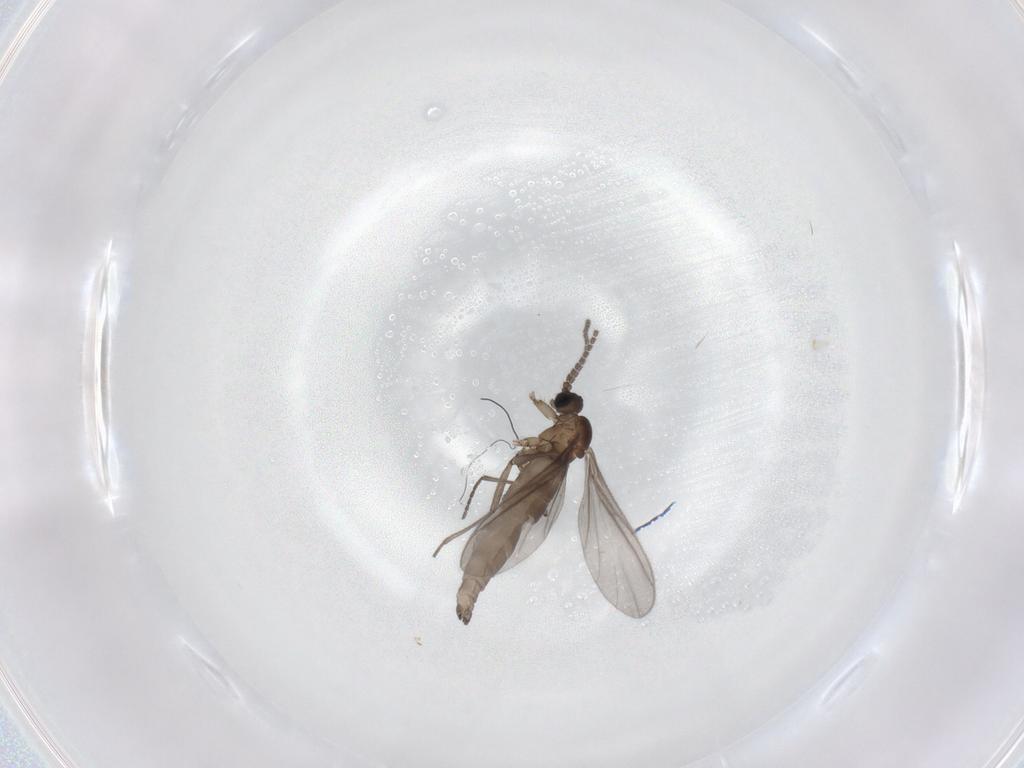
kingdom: Animalia
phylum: Arthropoda
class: Insecta
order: Diptera
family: Sciaridae
